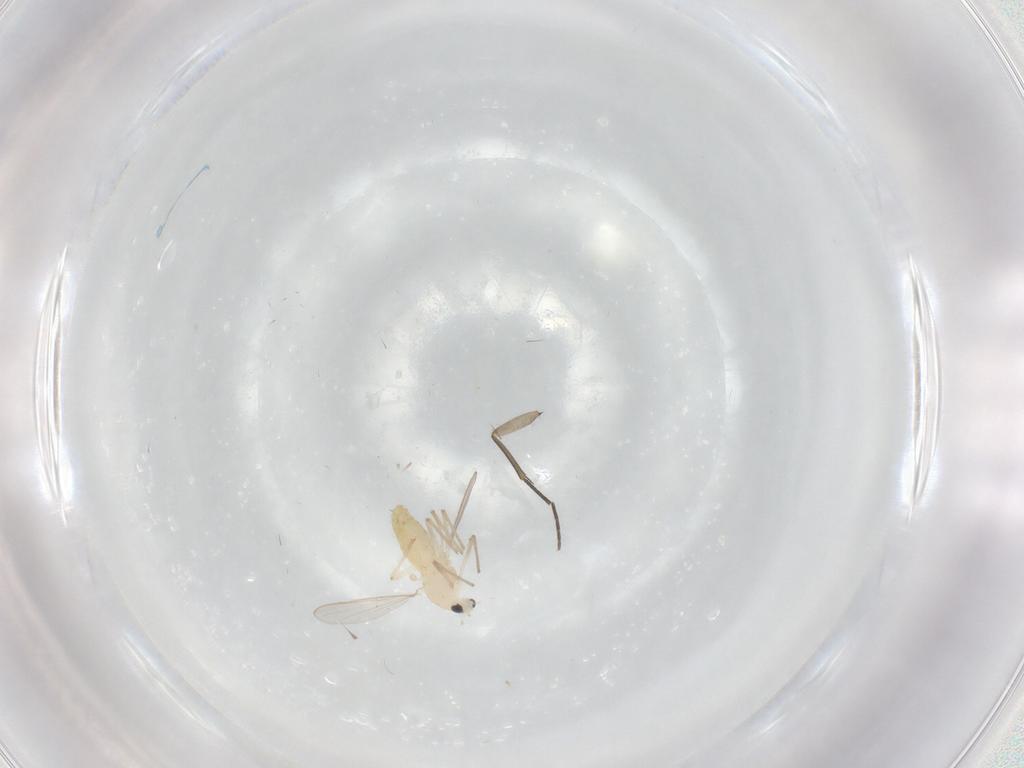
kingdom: Animalia
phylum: Arthropoda
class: Insecta
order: Diptera
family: Chironomidae
